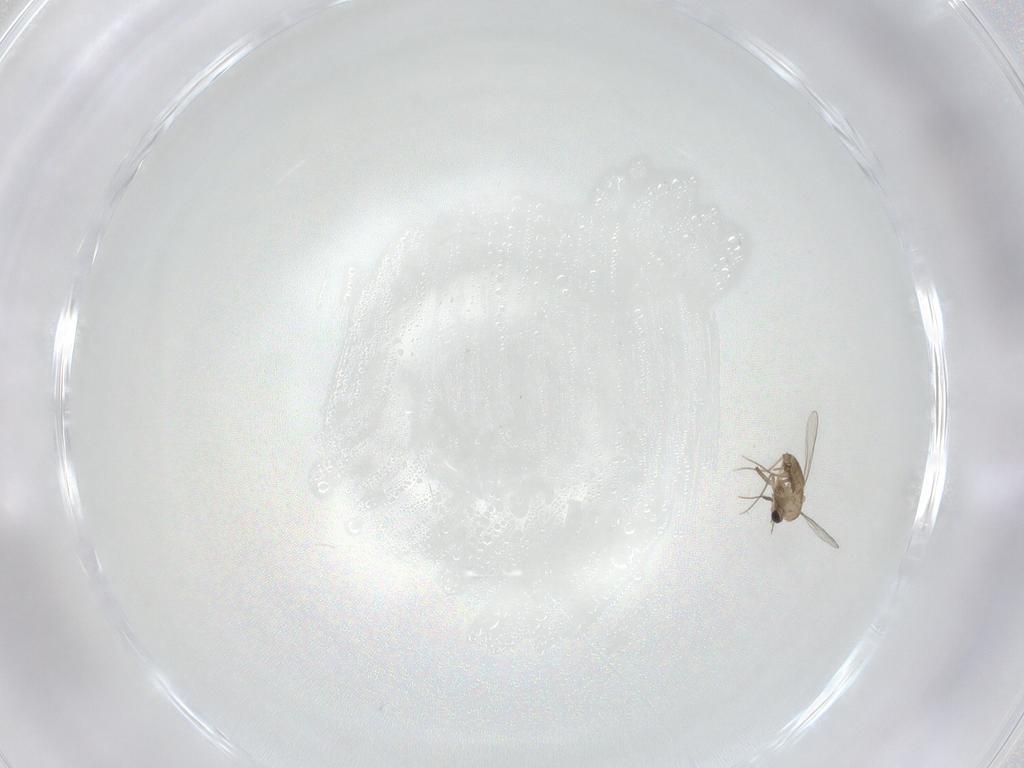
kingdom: Animalia
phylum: Arthropoda
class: Insecta
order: Diptera
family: Chironomidae
